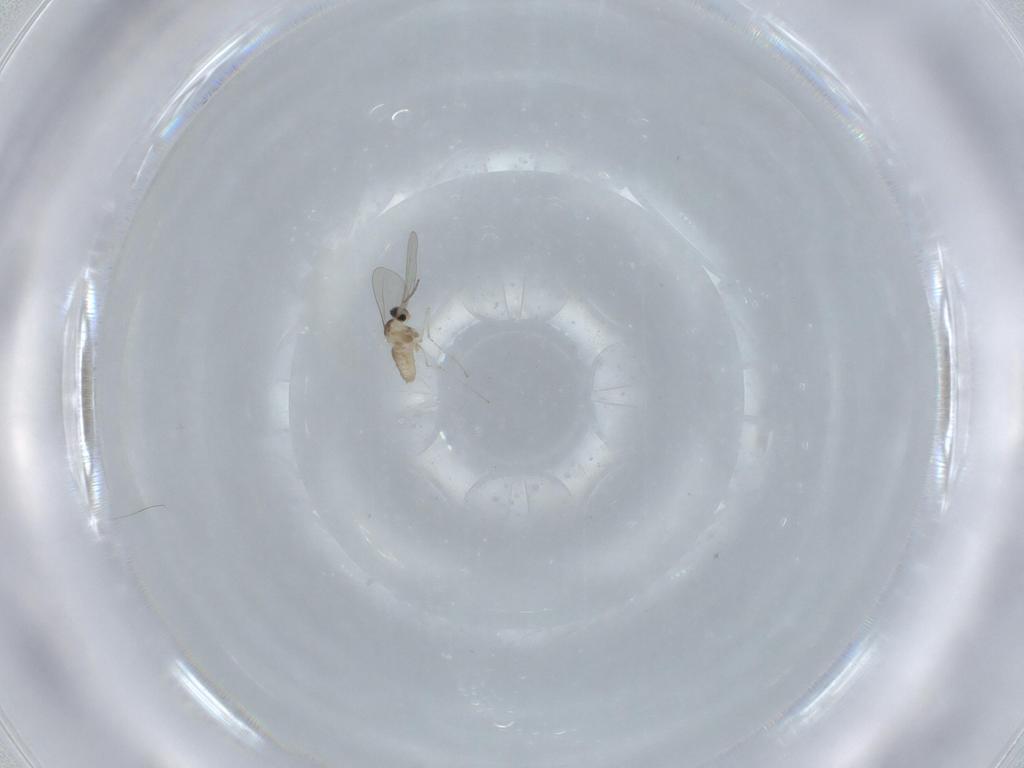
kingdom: Animalia
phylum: Arthropoda
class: Insecta
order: Diptera
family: Cecidomyiidae
